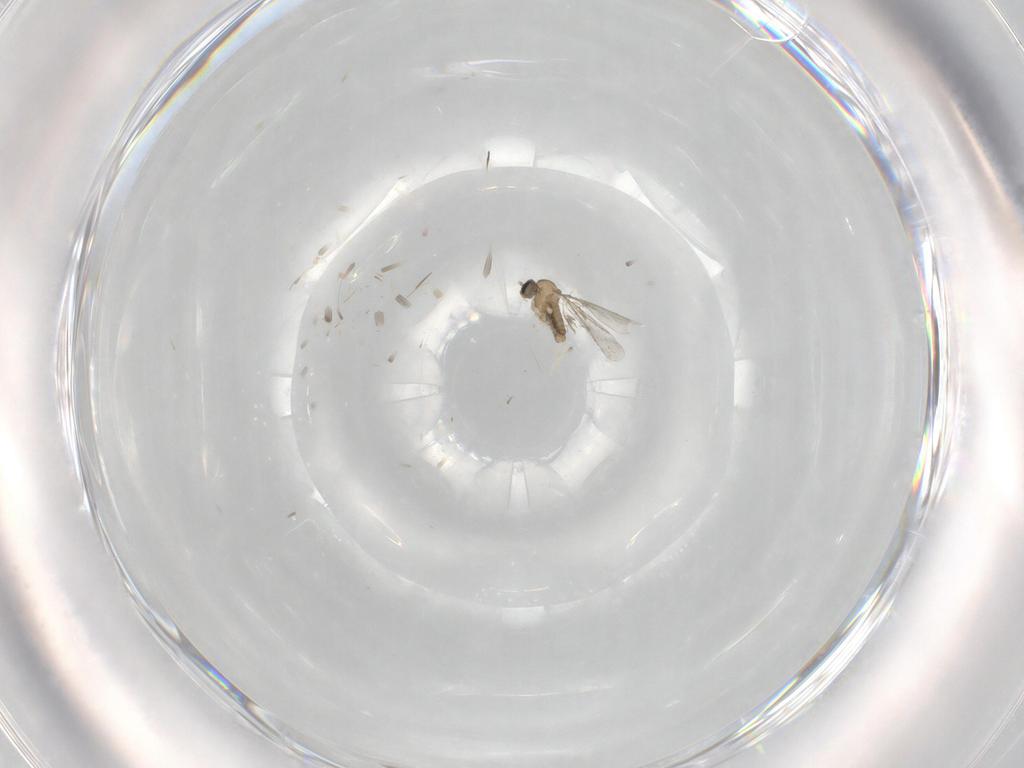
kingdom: Animalia
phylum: Arthropoda
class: Insecta
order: Diptera
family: Cecidomyiidae
